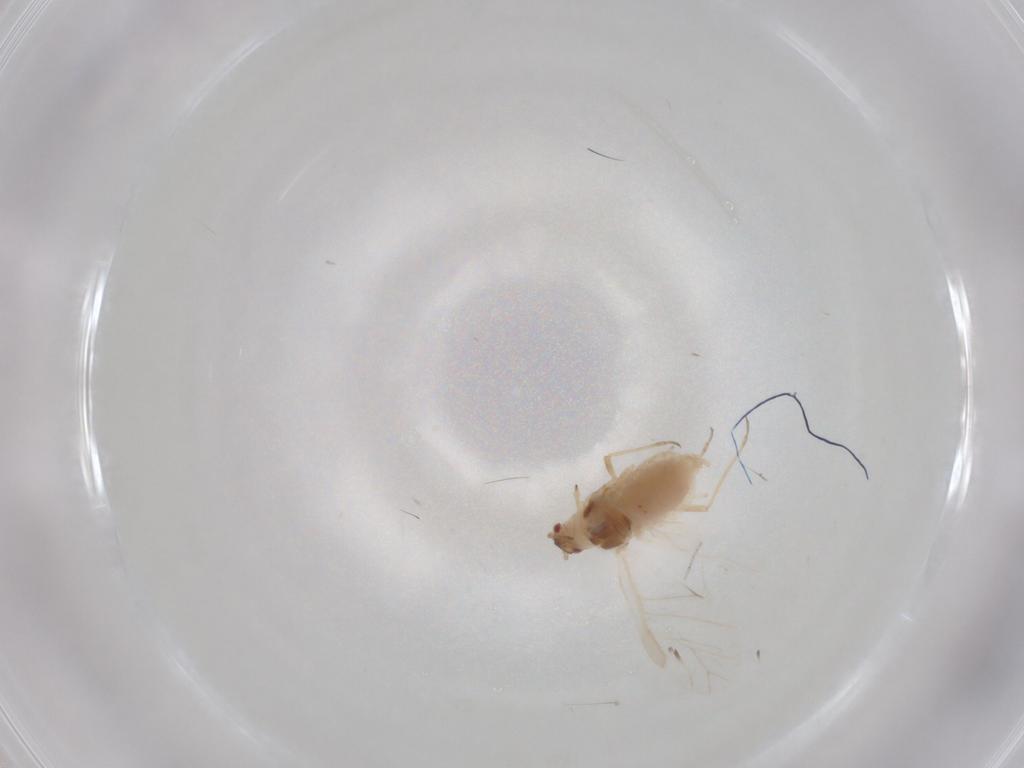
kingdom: Animalia
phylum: Arthropoda
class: Insecta
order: Hemiptera
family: Aphididae
